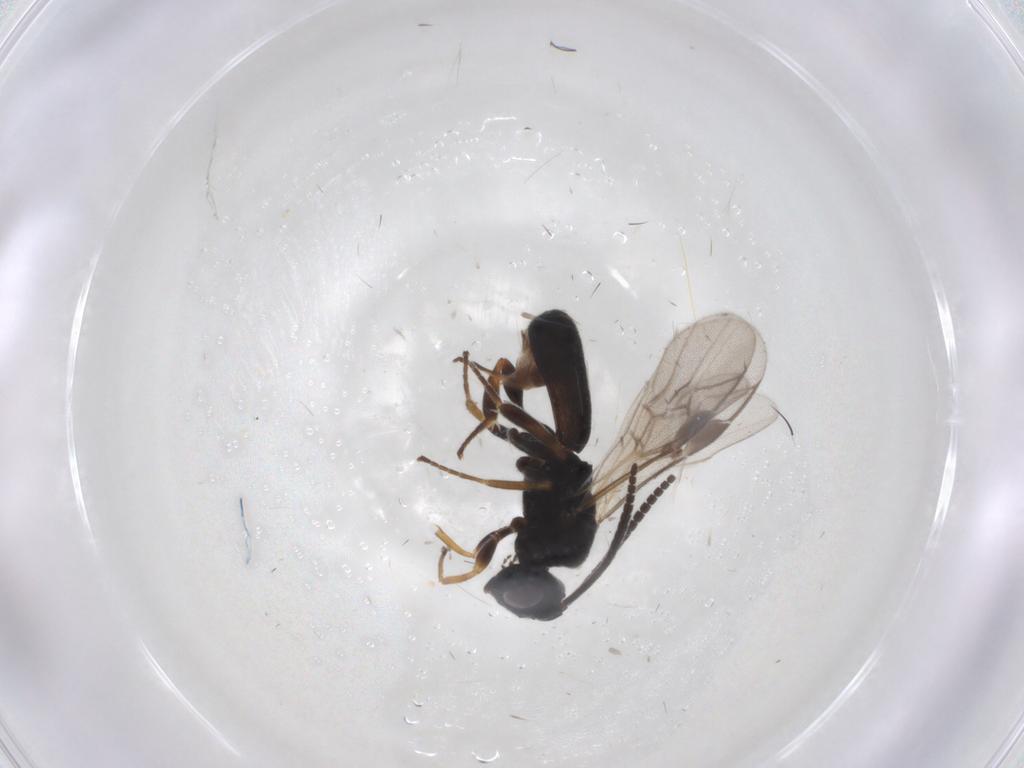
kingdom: Animalia
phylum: Arthropoda
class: Insecta
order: Hymenoptera
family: Braconidae
